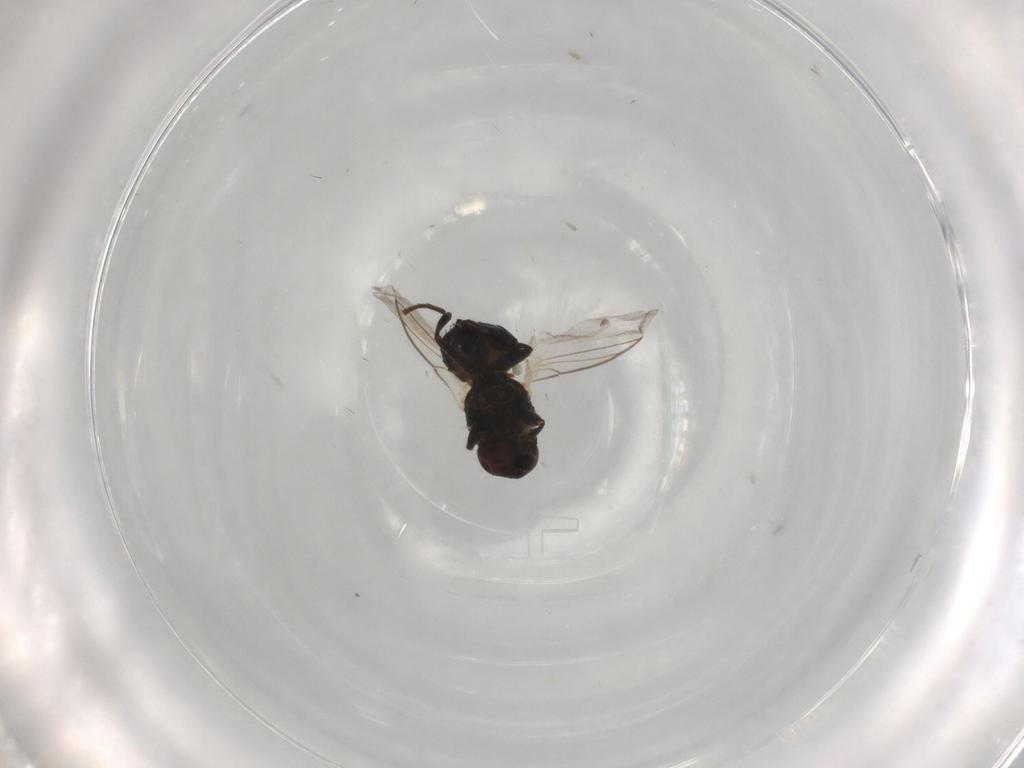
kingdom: Animalia
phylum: Arthropoda
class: Insecta
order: Diptera
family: Agromyzidae
